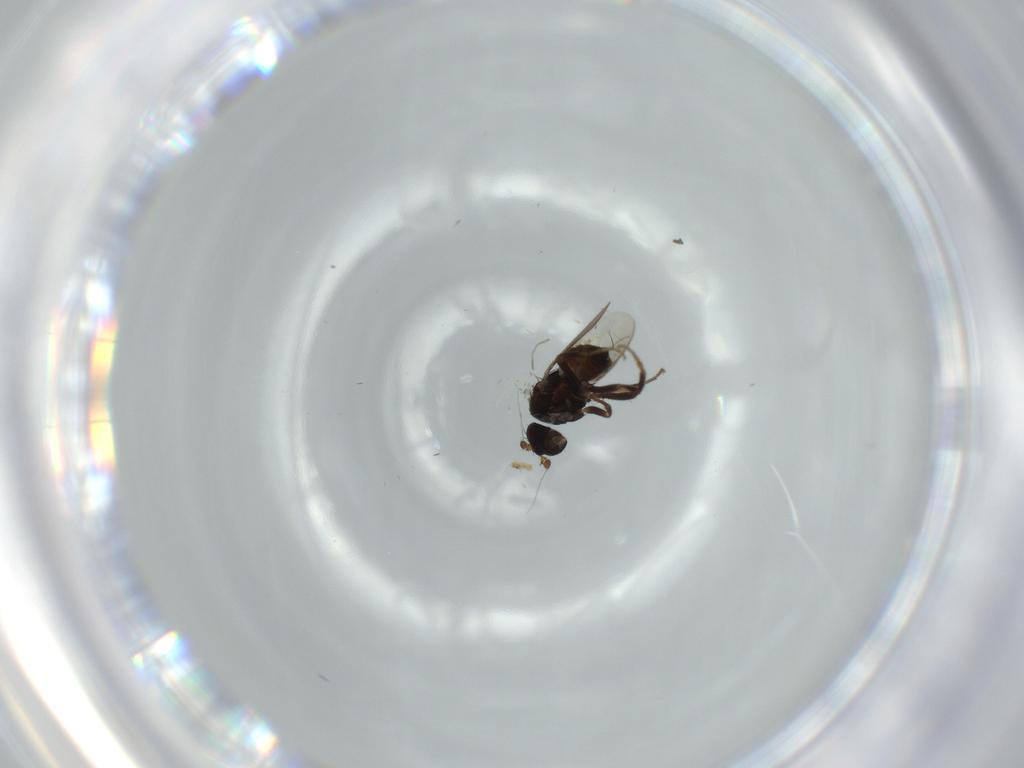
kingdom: Animalia
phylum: Arthropoda
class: Insecta
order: Diptera
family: Sphaeroceridae
